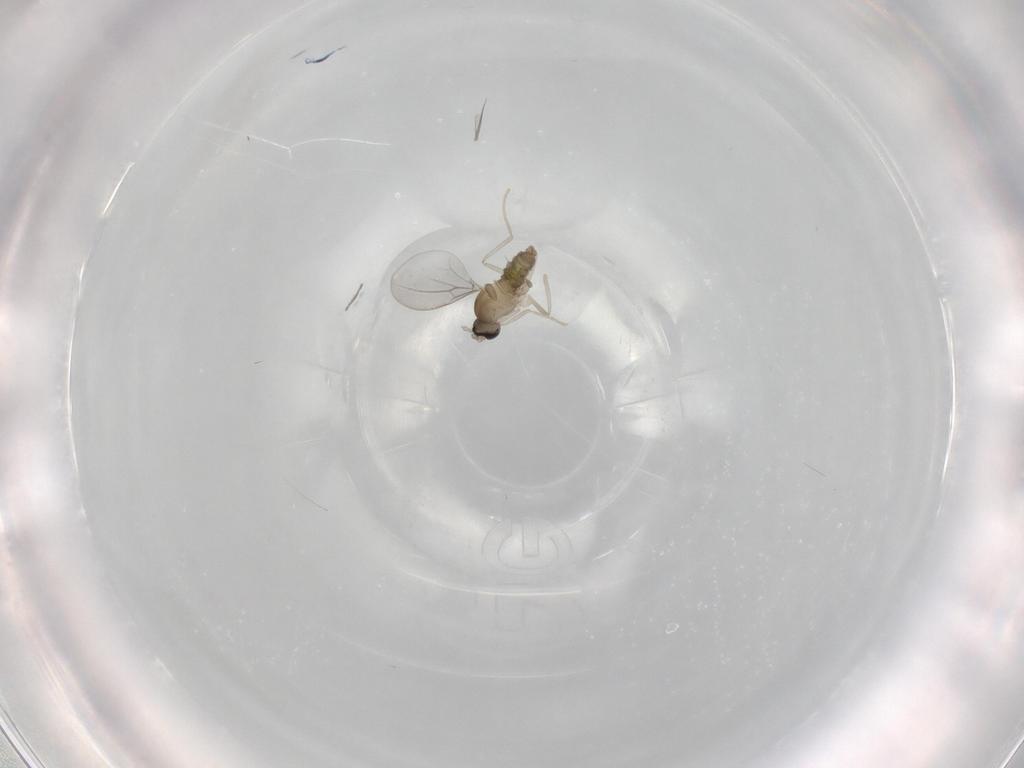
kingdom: Animalia
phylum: Arthropoda
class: Insecta
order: Diptera
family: Cecidomyiidae
